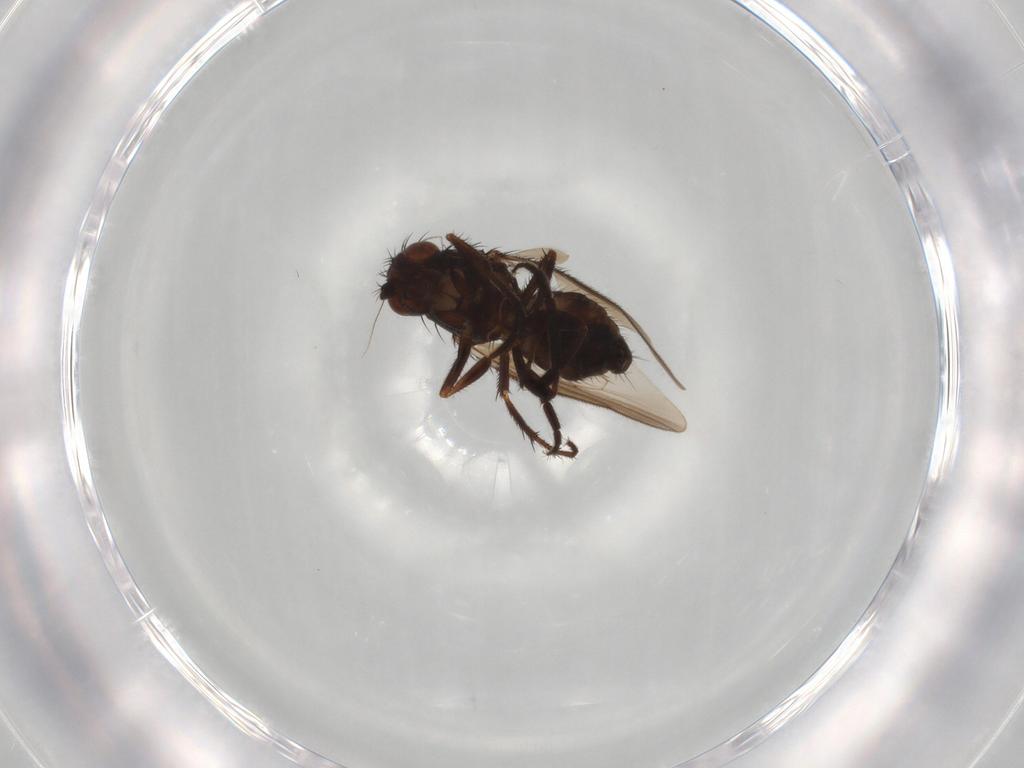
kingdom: Animalia
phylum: Arthropoda
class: Insecta
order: Diptera
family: Sphaeroceridae
